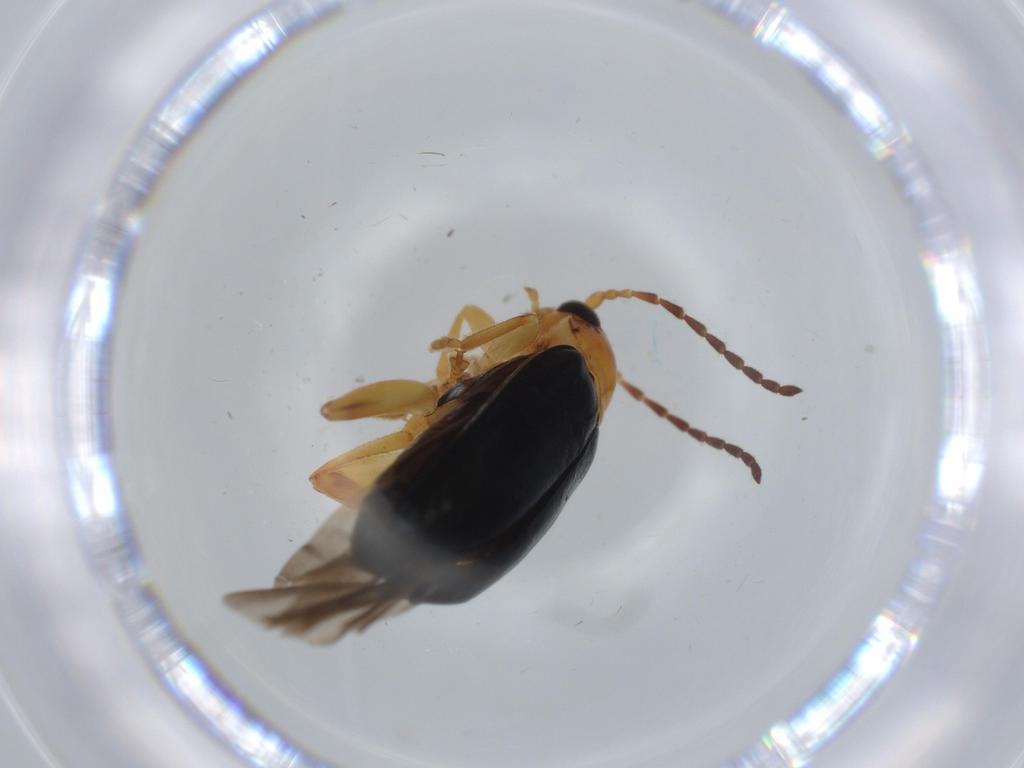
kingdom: Animalia
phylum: Arthropoda
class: Insecta
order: Coleoptera
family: Chrysomelidae
